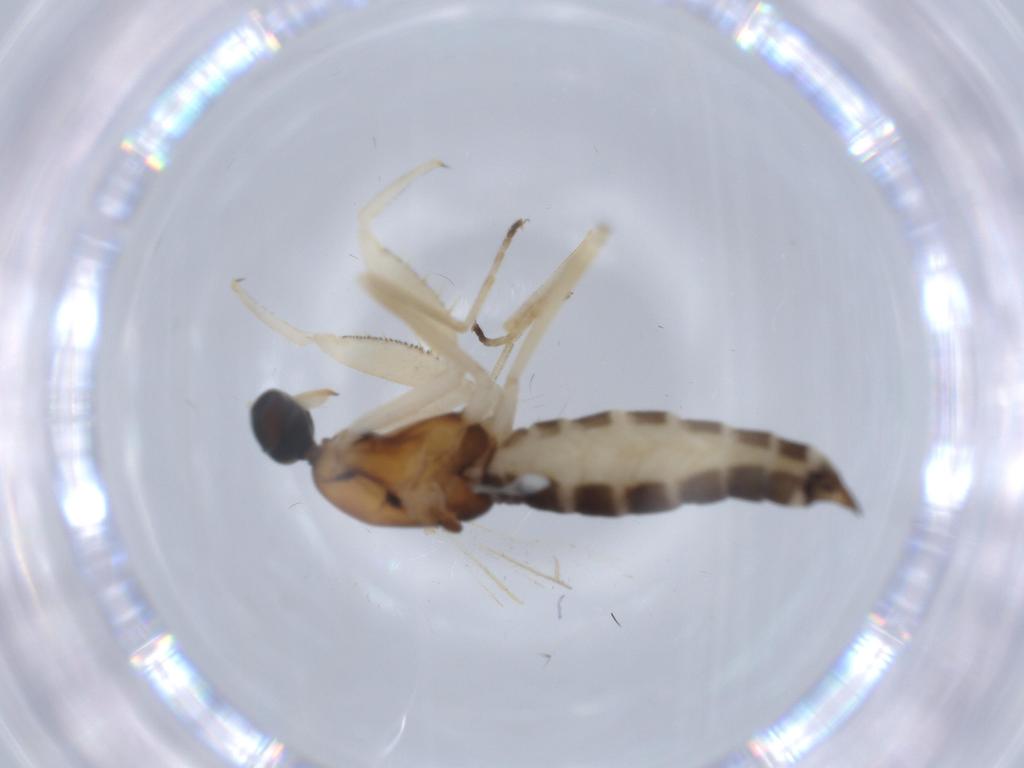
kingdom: Animalia
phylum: Arthropoda
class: Insecta
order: Diptera
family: Empididae
